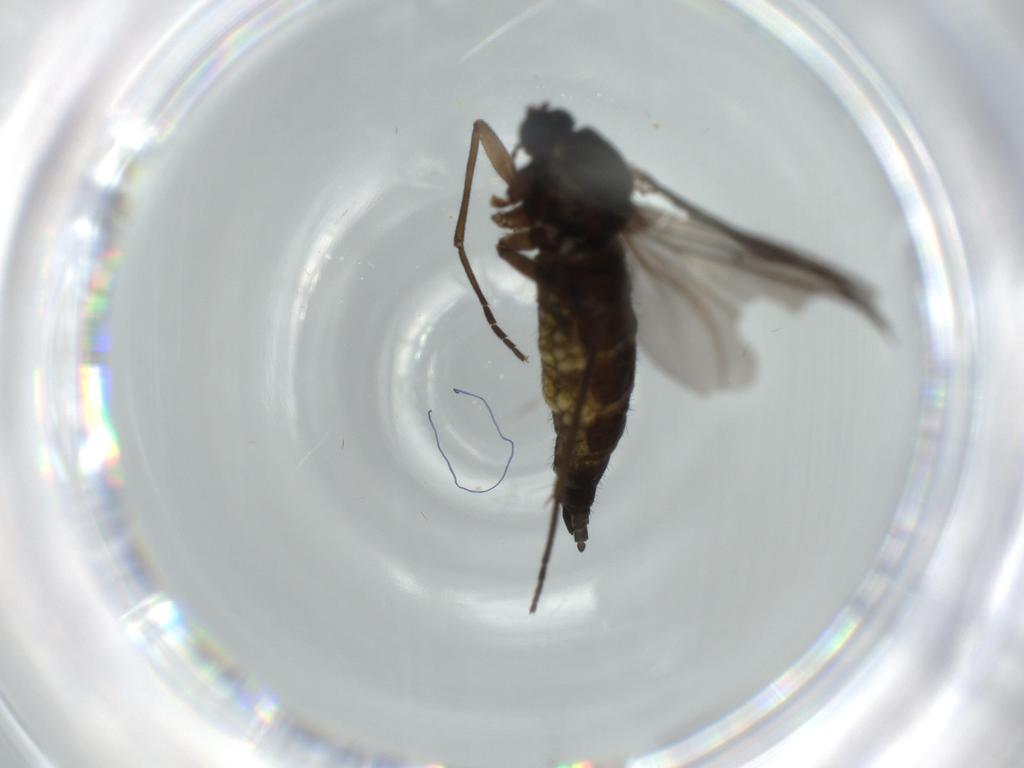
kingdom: Animalia
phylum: Arthropoda
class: Insecta
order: Diptera
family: Sciaridae
